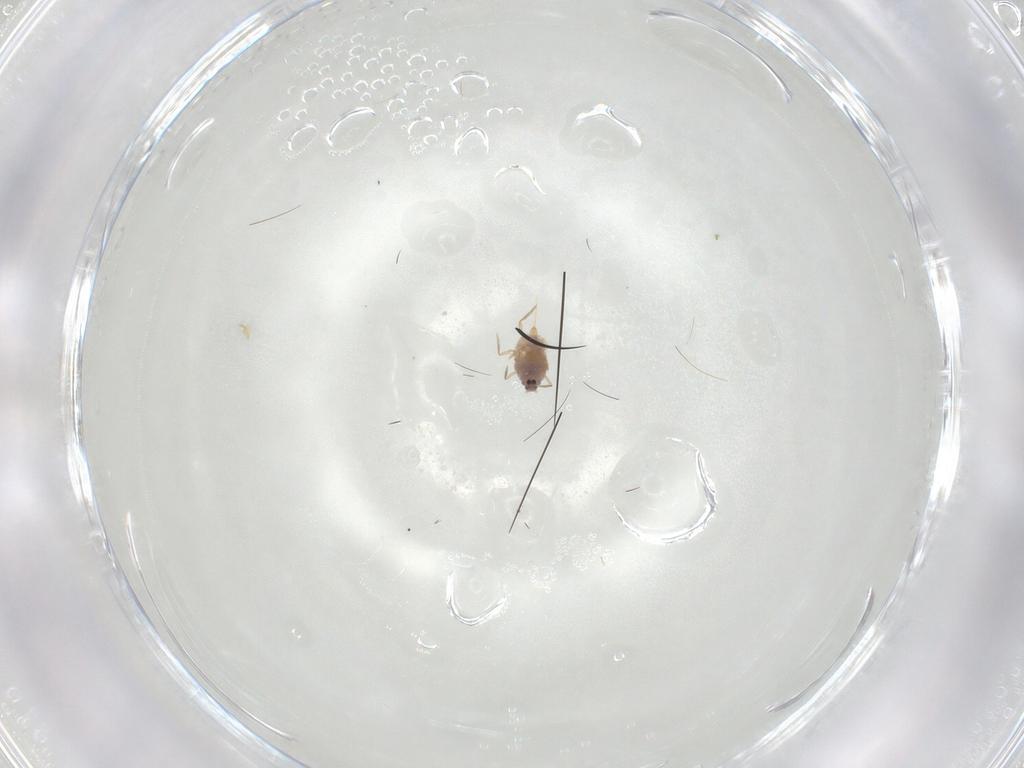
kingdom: Animalia
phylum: Arthropoda
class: Insecta
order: Hemiptera
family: Coccoidea_incertae_sedis
